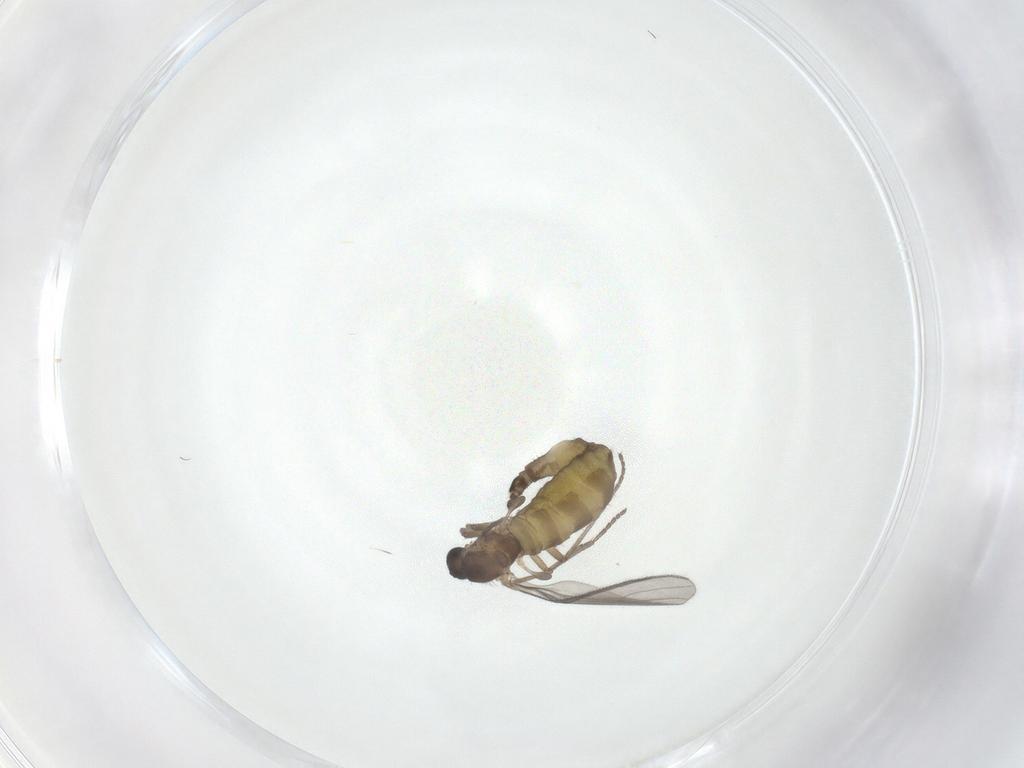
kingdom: Animalia
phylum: Arthropoda
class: Insecta
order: Diptera
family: Sciaridae
